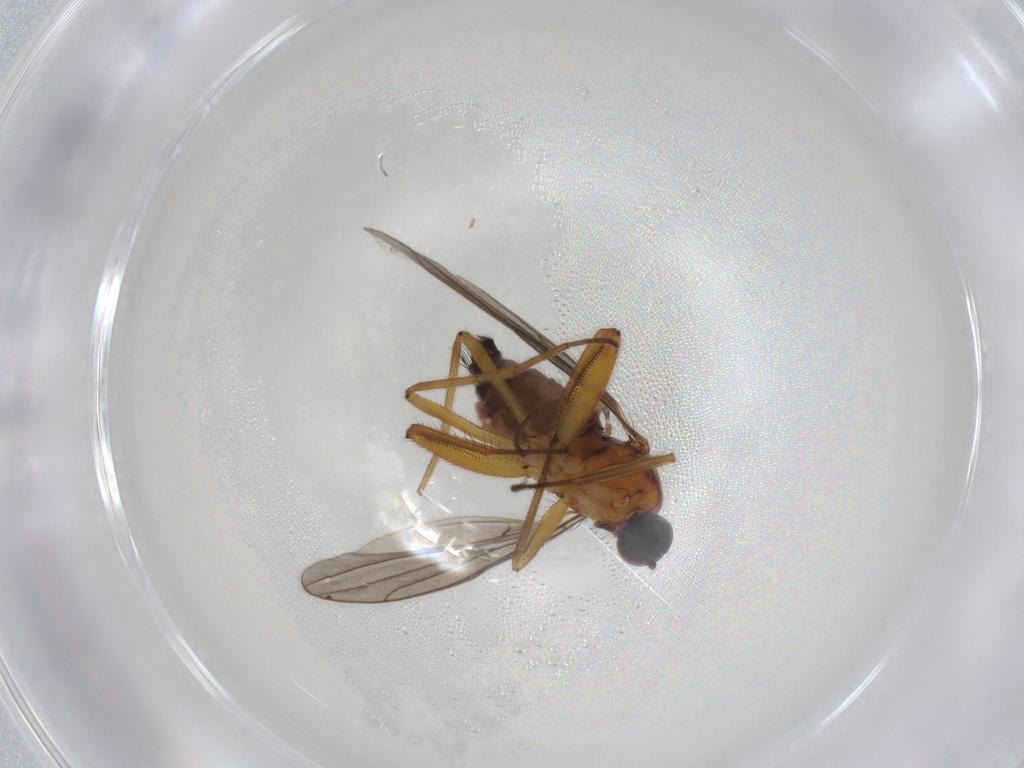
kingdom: Animalia
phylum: Arthropoda
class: Insecta
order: Diptera
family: Hybotidae
